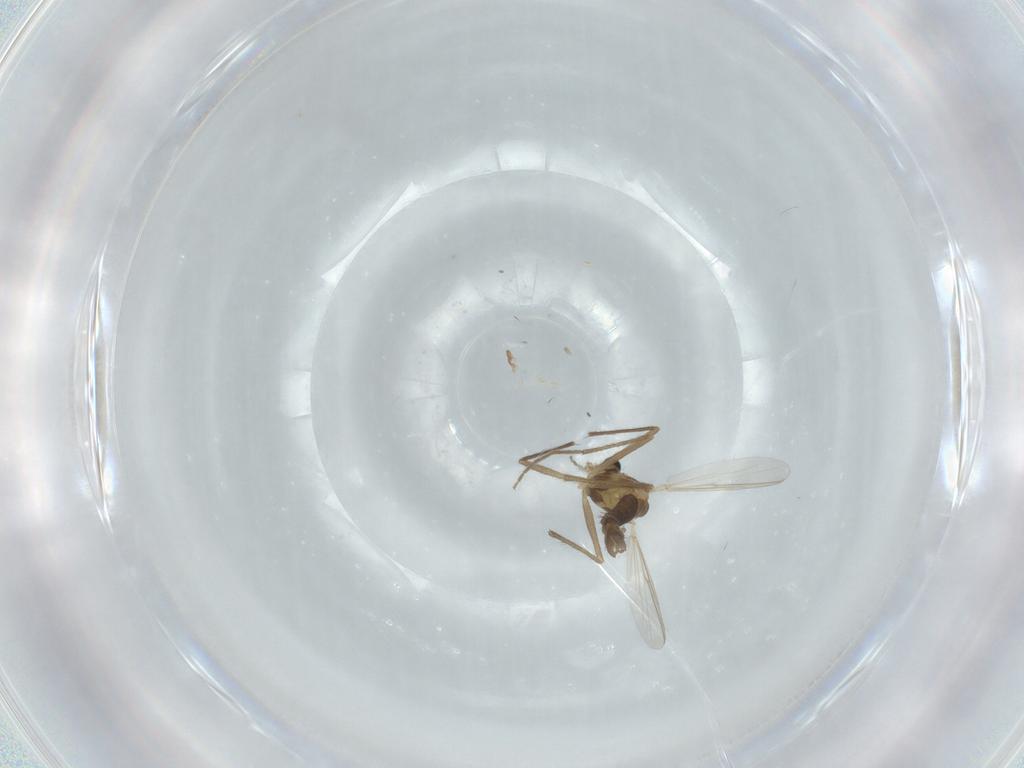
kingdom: Animalia
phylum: Arthropoda
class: Insecta
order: Diptera
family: Chironomidae
